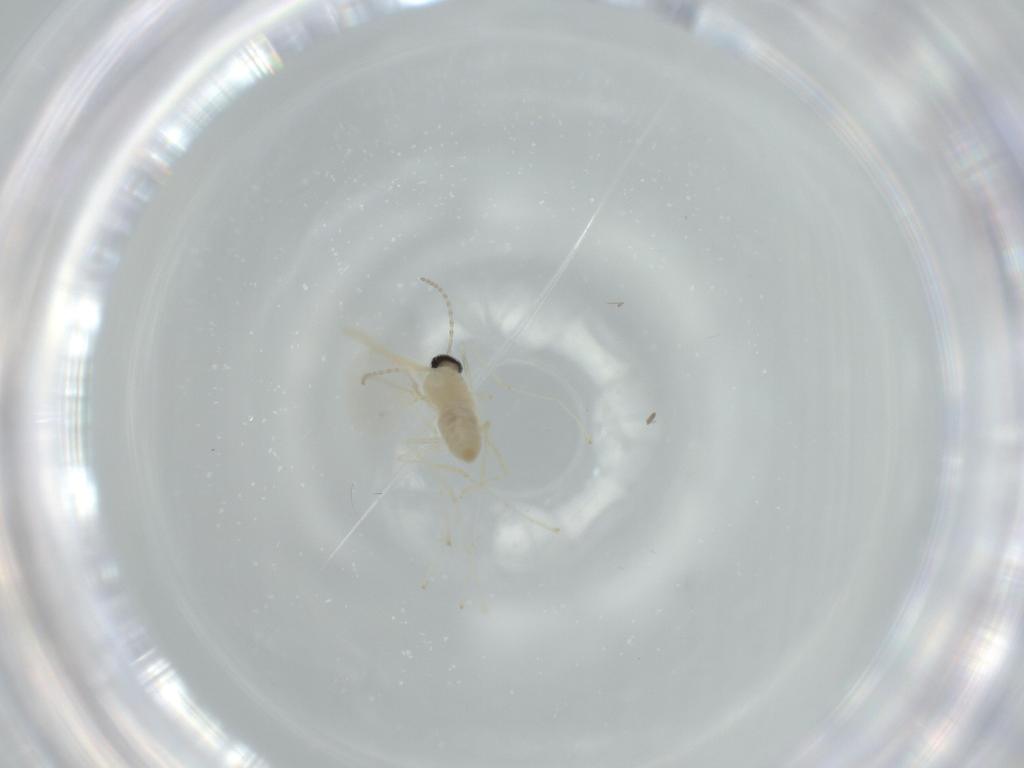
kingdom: Animalia
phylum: Arthropoda
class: Insecta
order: Diptera
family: Cecidomyiidae
